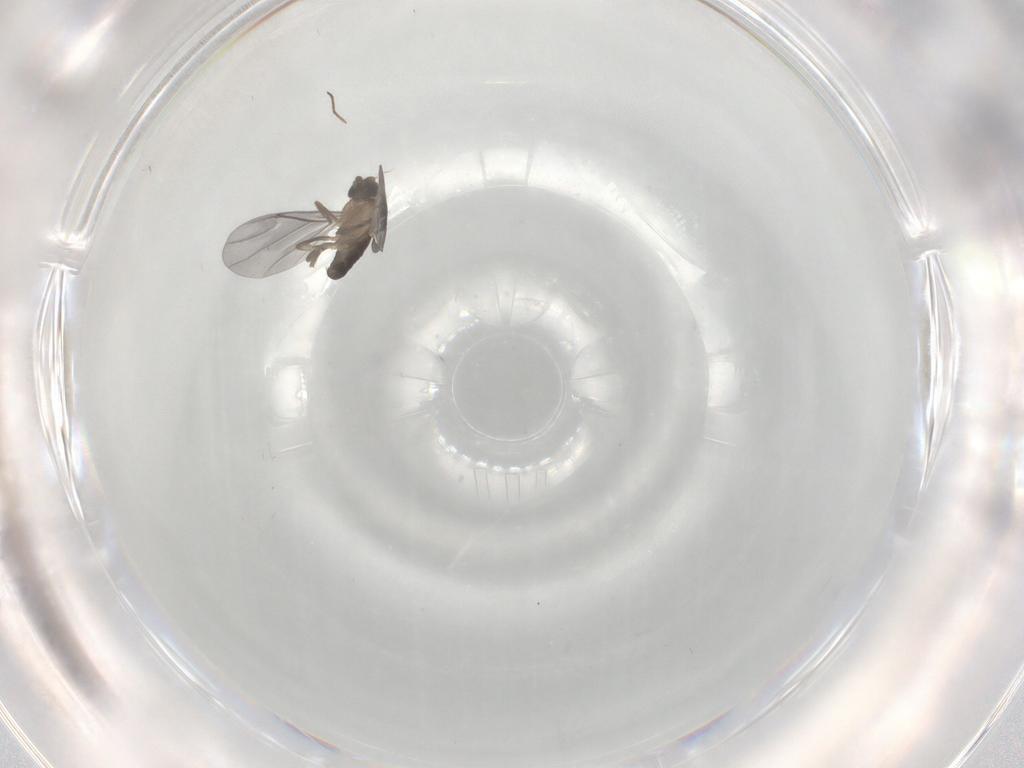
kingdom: Animalia
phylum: Arthropoda
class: Insecta
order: Diptera
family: Phoridae
